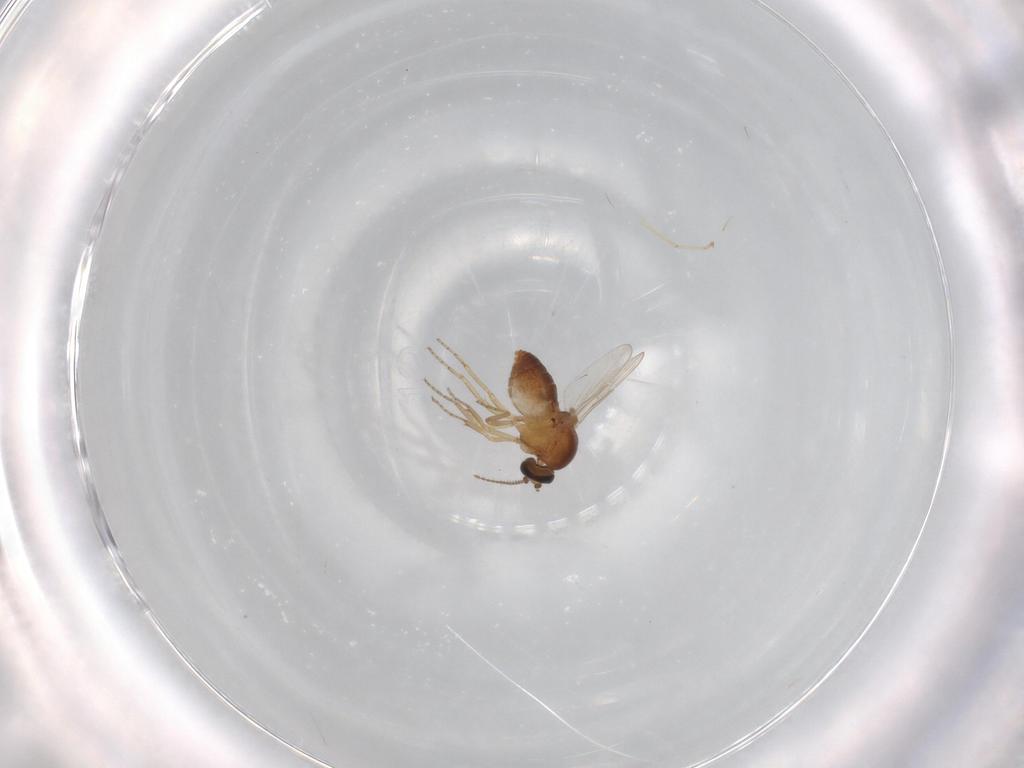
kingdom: Animalia
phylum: Arthropoda
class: Insecta
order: Diptera
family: Ceratopogonidae
